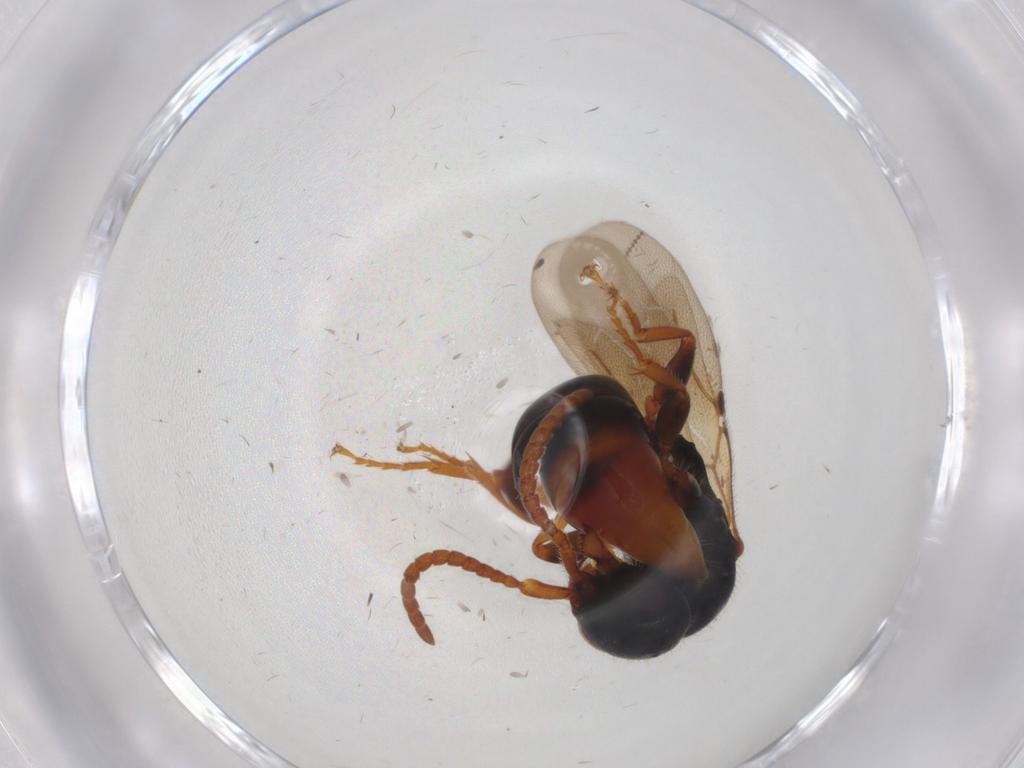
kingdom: Animalia
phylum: Arthropoda
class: Insecta
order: Hymenoptera
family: Bethylidae
